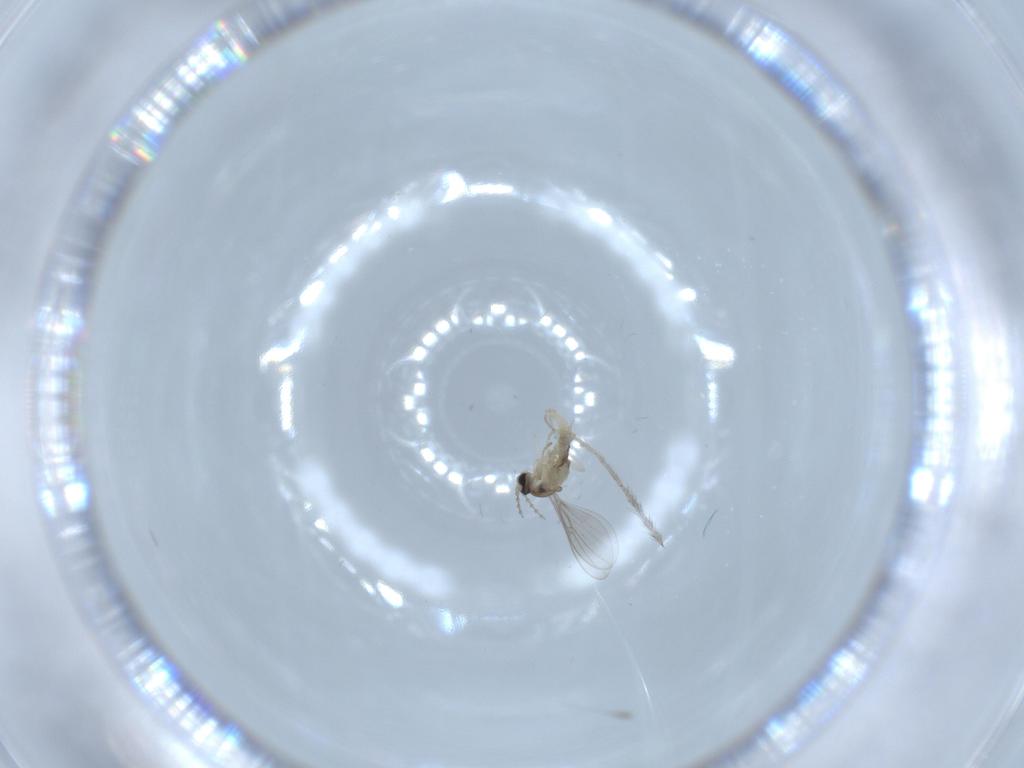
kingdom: Animalia
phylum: Arthropoda
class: Insecta
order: Diptera
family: Cecidomyiidae
